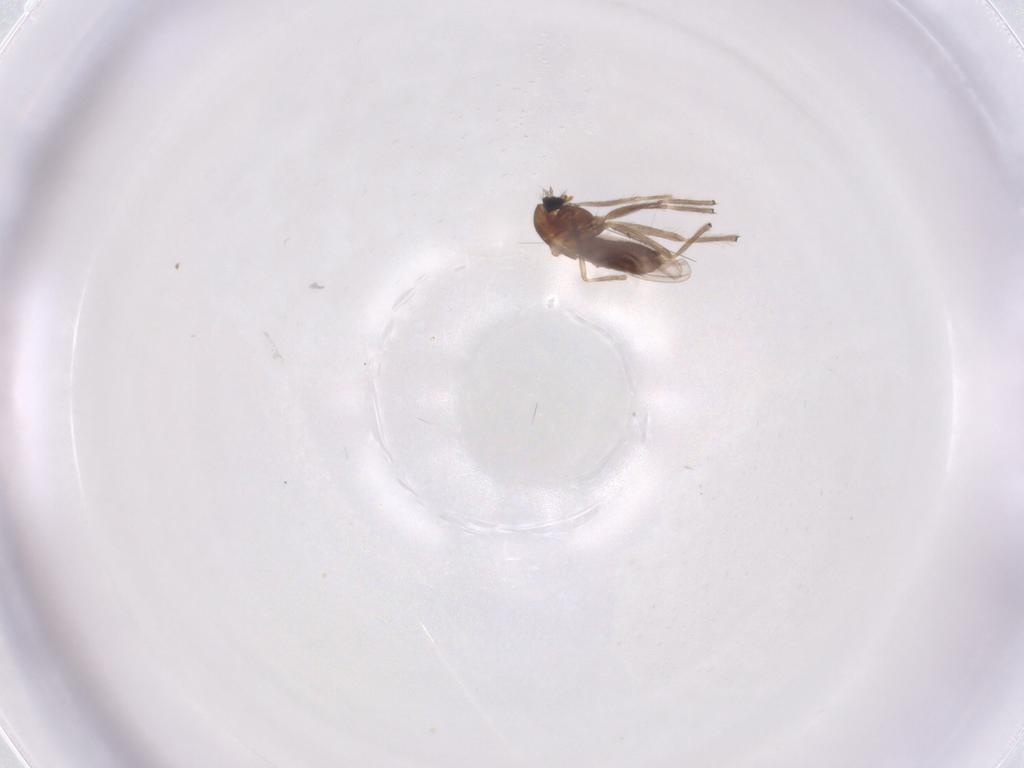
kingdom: Animalia
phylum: Arthropoda
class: Insecta
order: Diptera
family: Chironomidae
